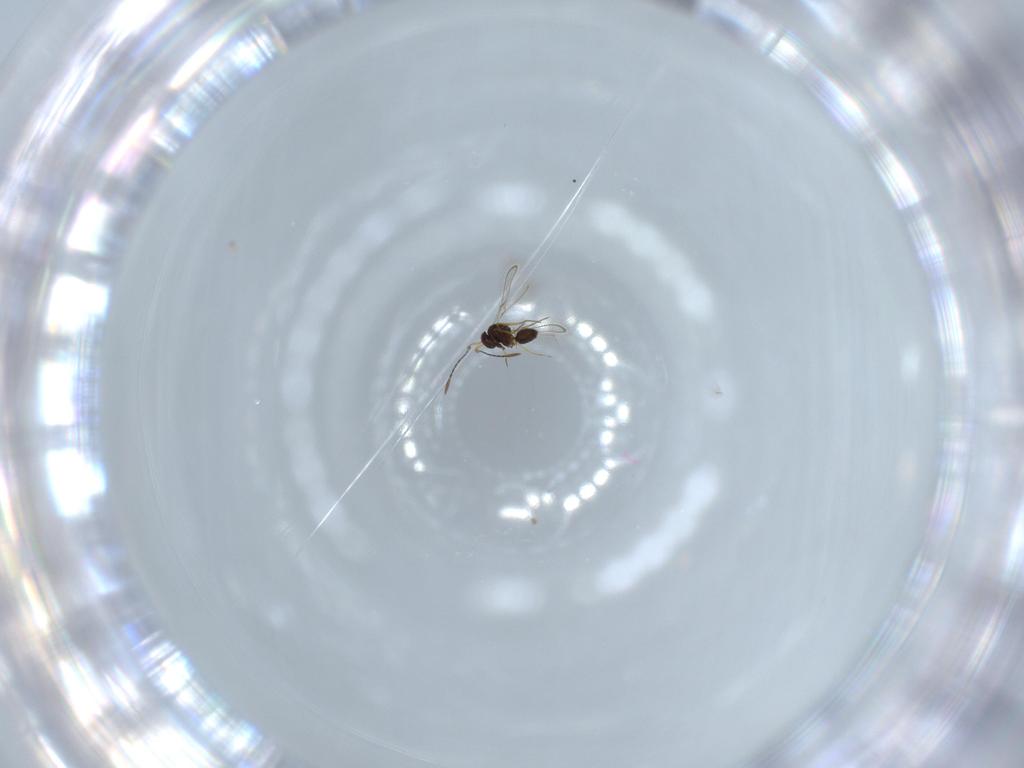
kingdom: Animalia
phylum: Arthropoda
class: Insecta
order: Hymenoptera
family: Mymaridae
